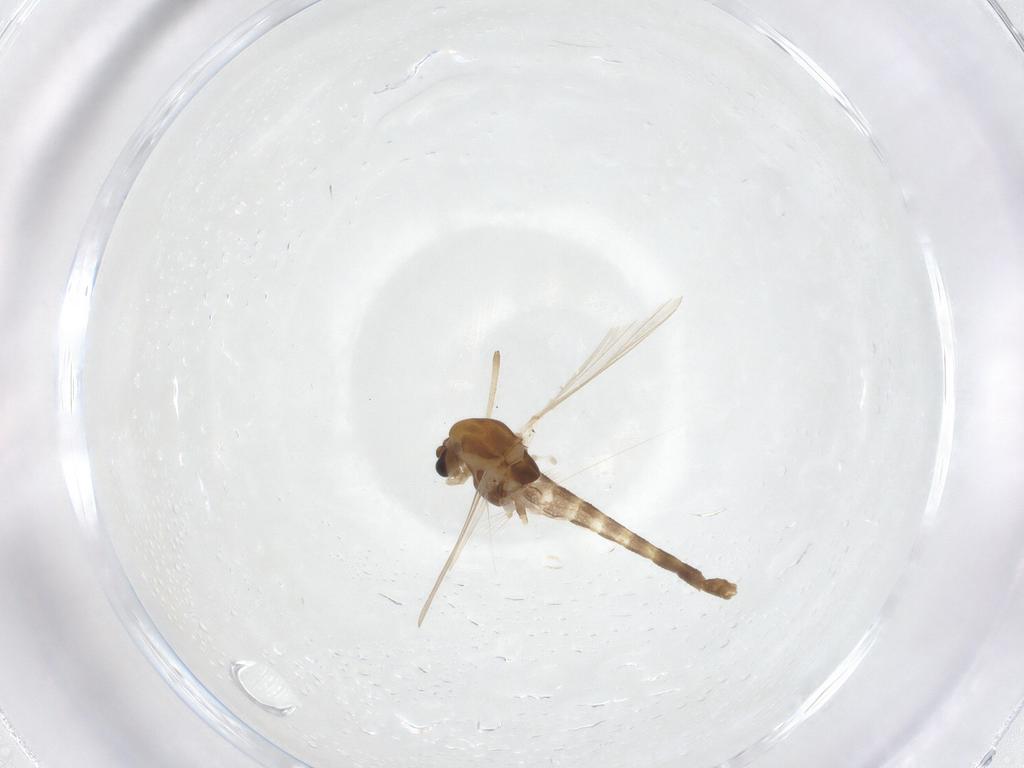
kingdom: Animalia
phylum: Arthropoda
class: Insecta
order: Diptera
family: Chironomidae
